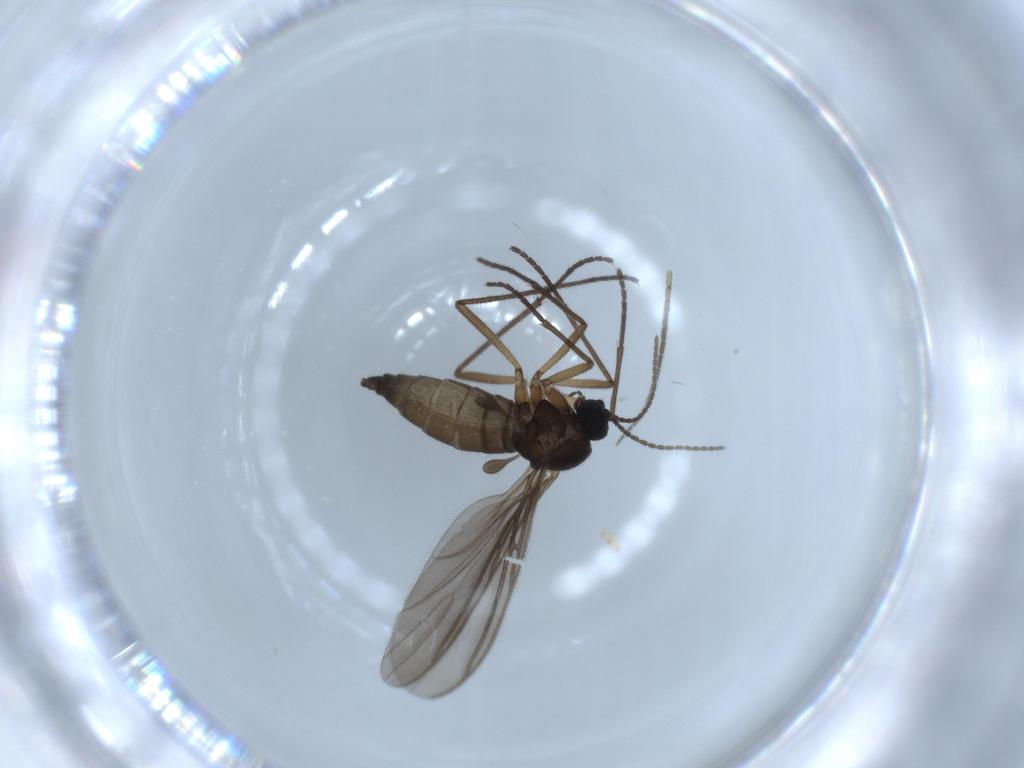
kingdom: Animalia
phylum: Arthropoda
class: Insecta
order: Diptera
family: Sciaridae
